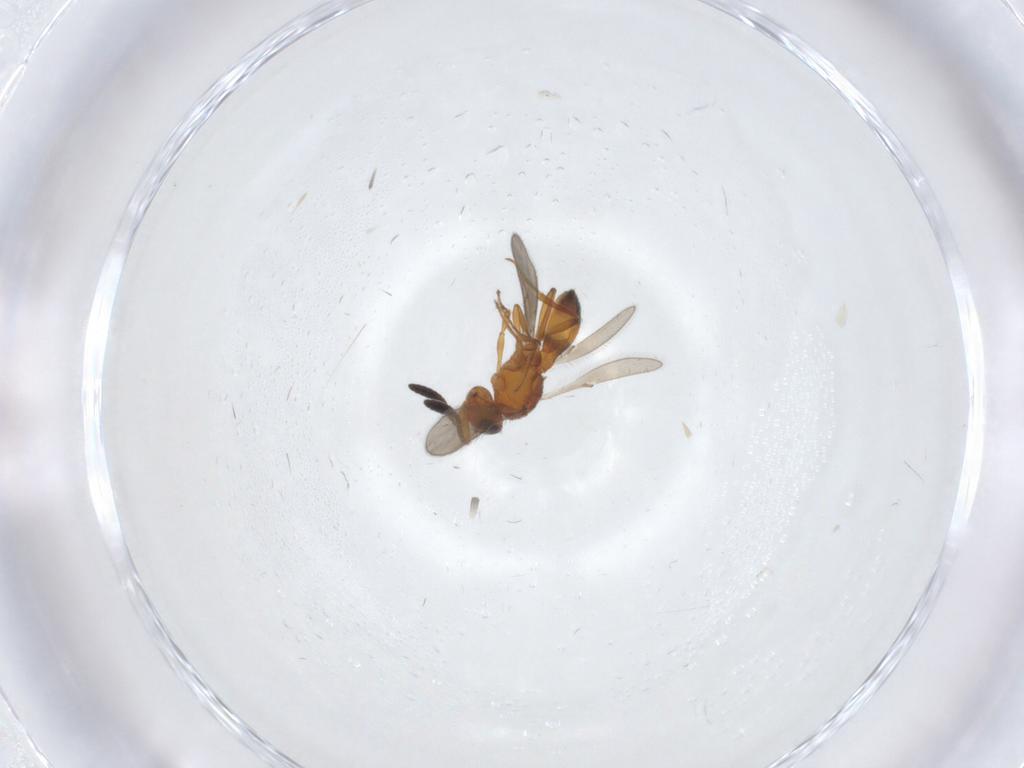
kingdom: Animalia
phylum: Arthropoda
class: Insecta
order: Hymenoptera
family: Scelionidae
